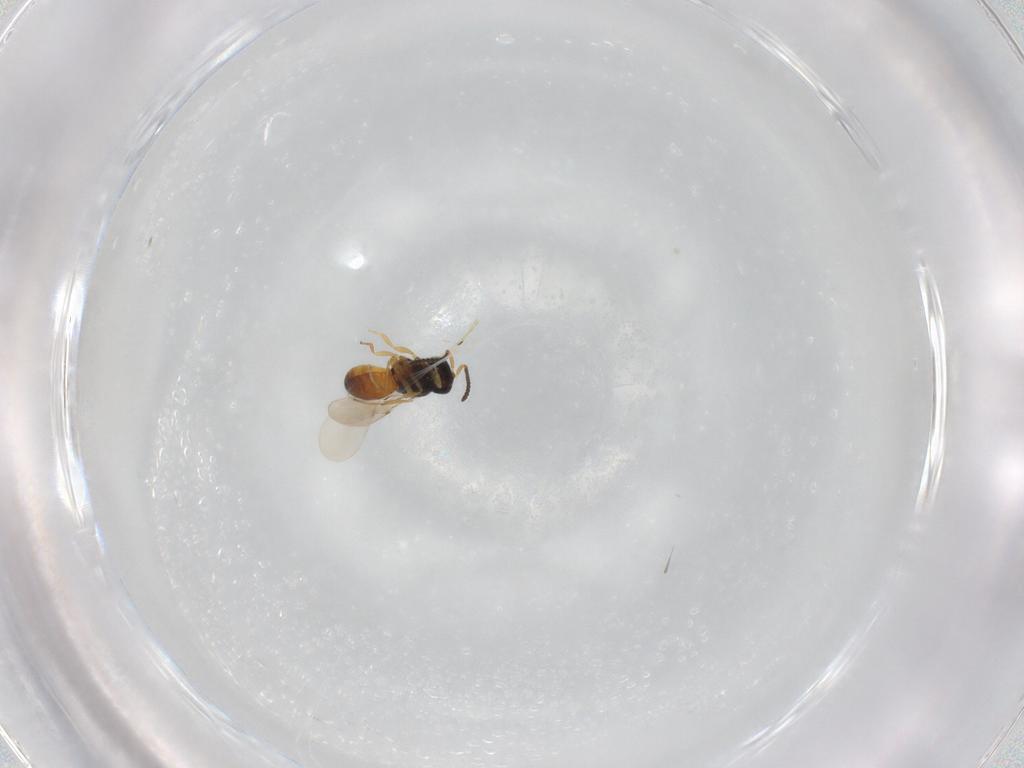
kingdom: Animalia
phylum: Arthropoda
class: Insecta
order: Hymenoptera
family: Scelionidae
